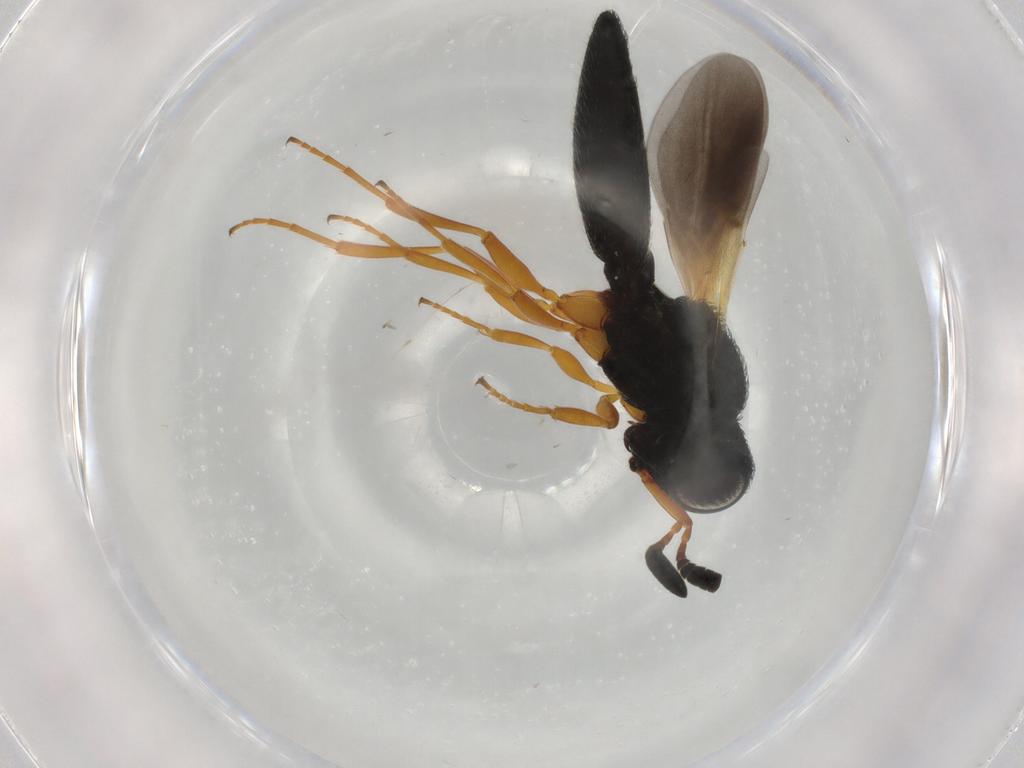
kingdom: Animalia
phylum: Arthropoda
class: Insecta
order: Hymenoptera
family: Scelionidae
